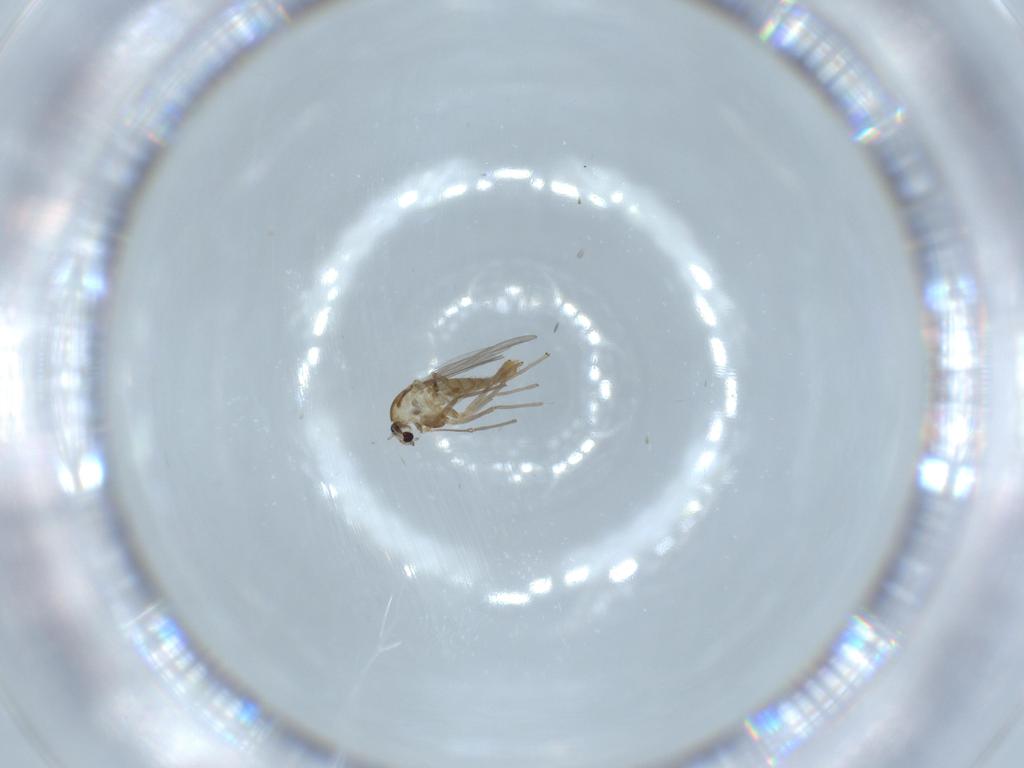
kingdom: Animalia
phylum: Arthropoda
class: Insecta
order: Diptera
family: Chironomidae
